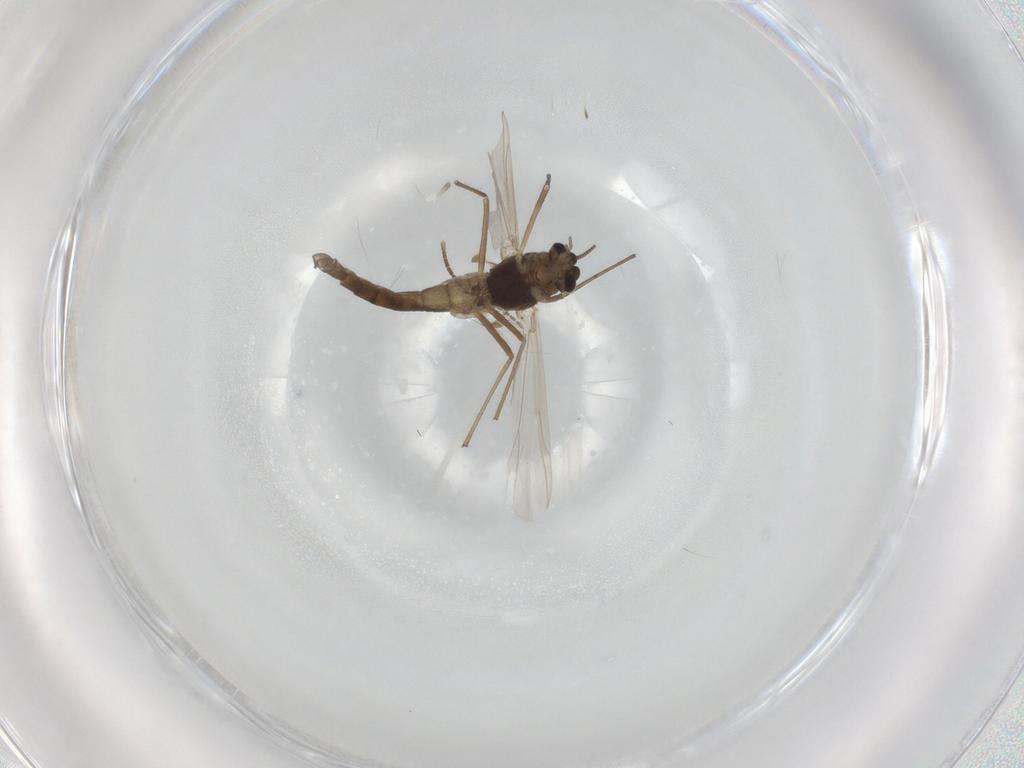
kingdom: Animalia
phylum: Arthropoda
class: Insecta
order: Diptera
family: Chironomidae
